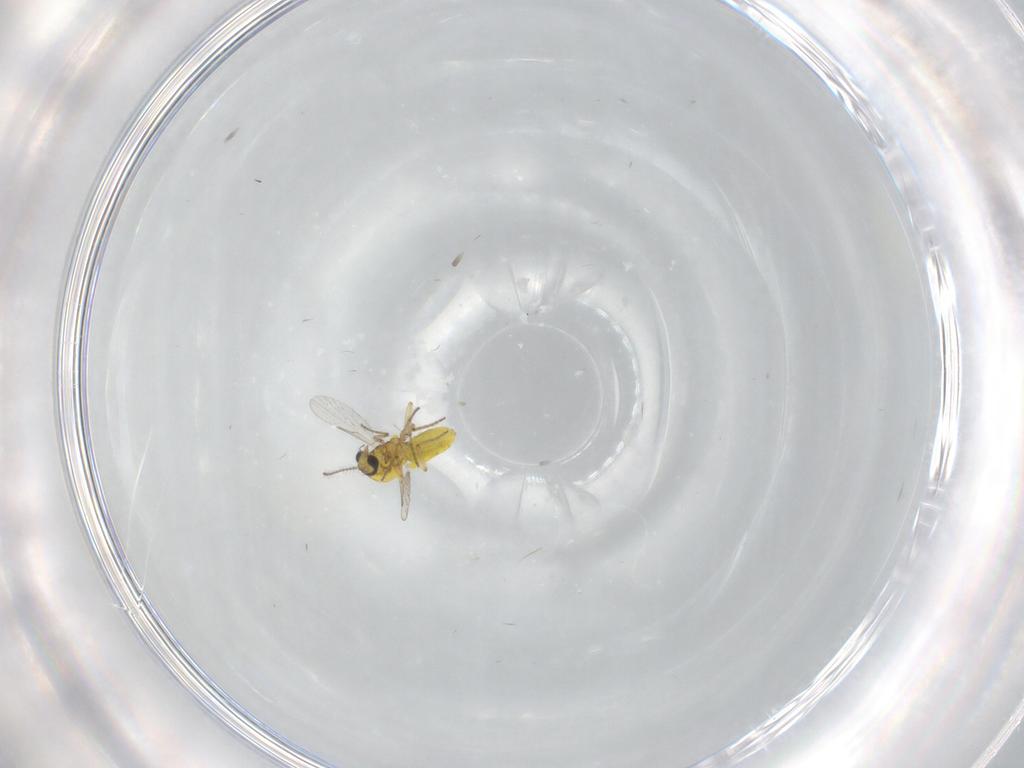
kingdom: Animalia
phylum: Arthropoda
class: Insecta
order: Diptera
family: Ceratopogonidae
